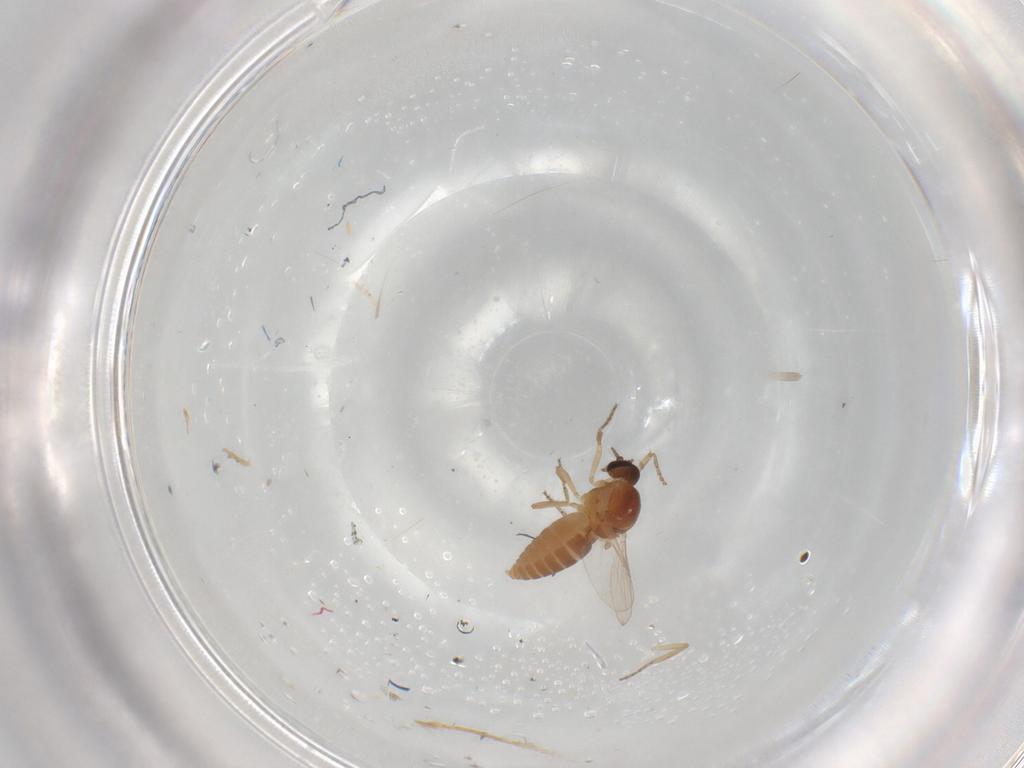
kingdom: Animalia
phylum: Arthropoda
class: Insecta
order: Diptera
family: Ceratopogonidae
